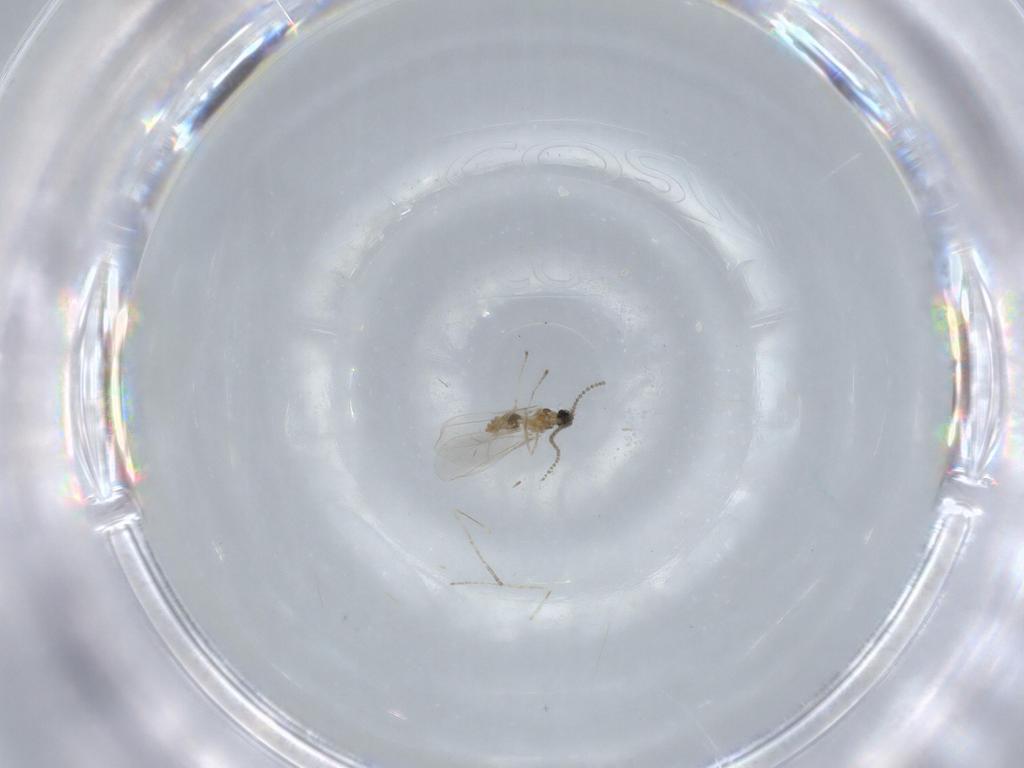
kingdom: Animalia
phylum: Arthropoda
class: Insecta
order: Diptera
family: Cecidomyiidae
